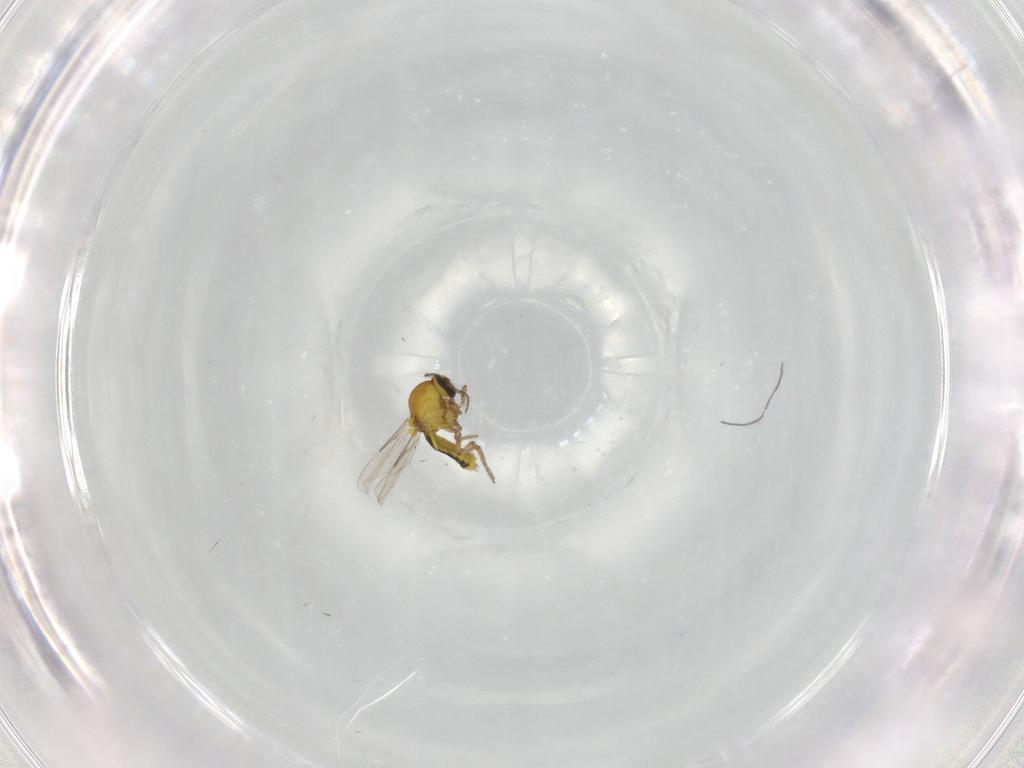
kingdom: Animalia
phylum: Arthropoda
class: Insecta
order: Diptera
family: Ceratopogonidae
